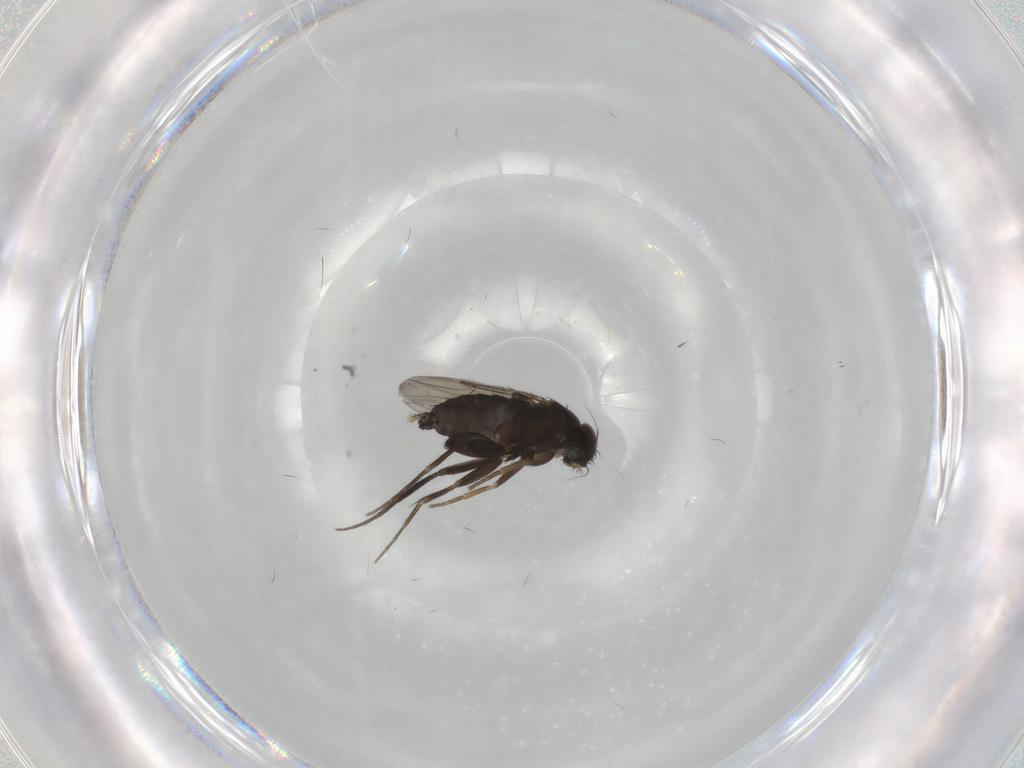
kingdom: Animalia
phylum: Arthropoda
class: Insecta
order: Diptera
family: Phoridae
